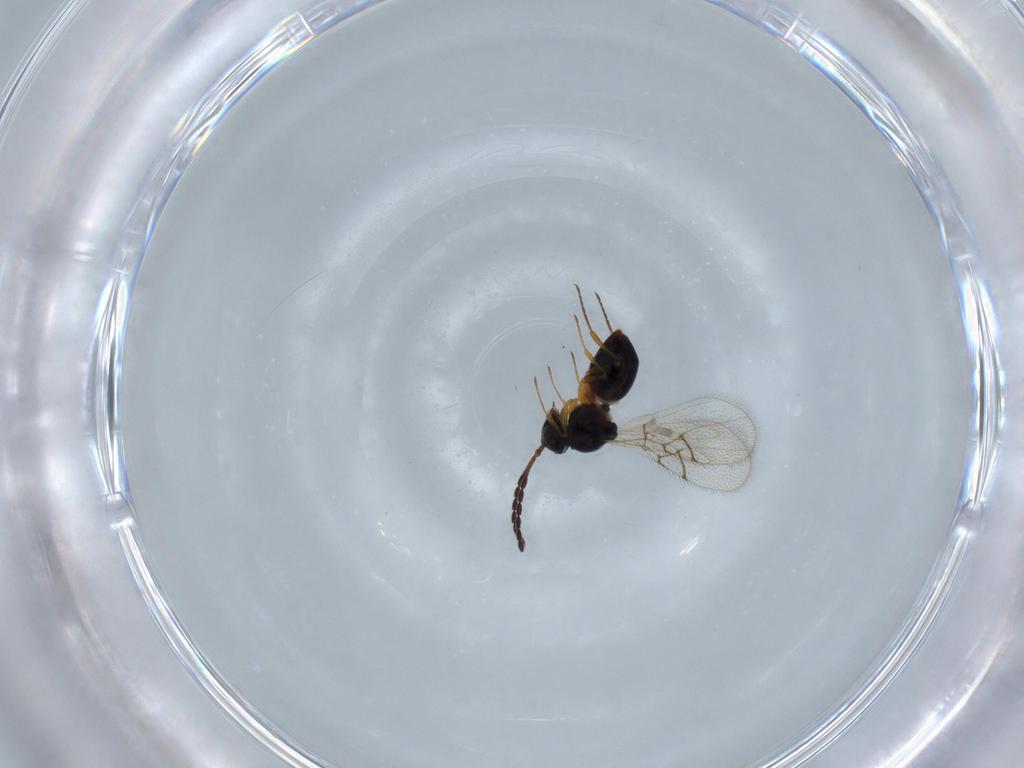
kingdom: Animalia
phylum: Arthropoda
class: Insecta
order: Hymenoptera
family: Figitidae
